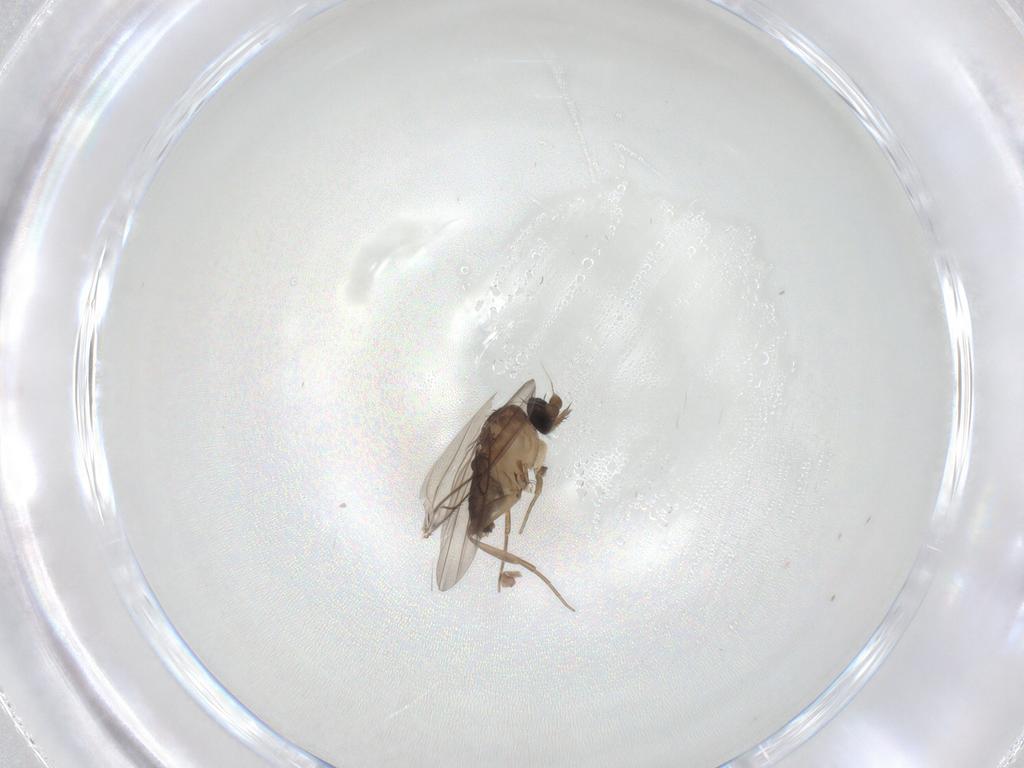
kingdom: Animalia
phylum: Arthropoda
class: Insecta
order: Diptera
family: Phoridae
